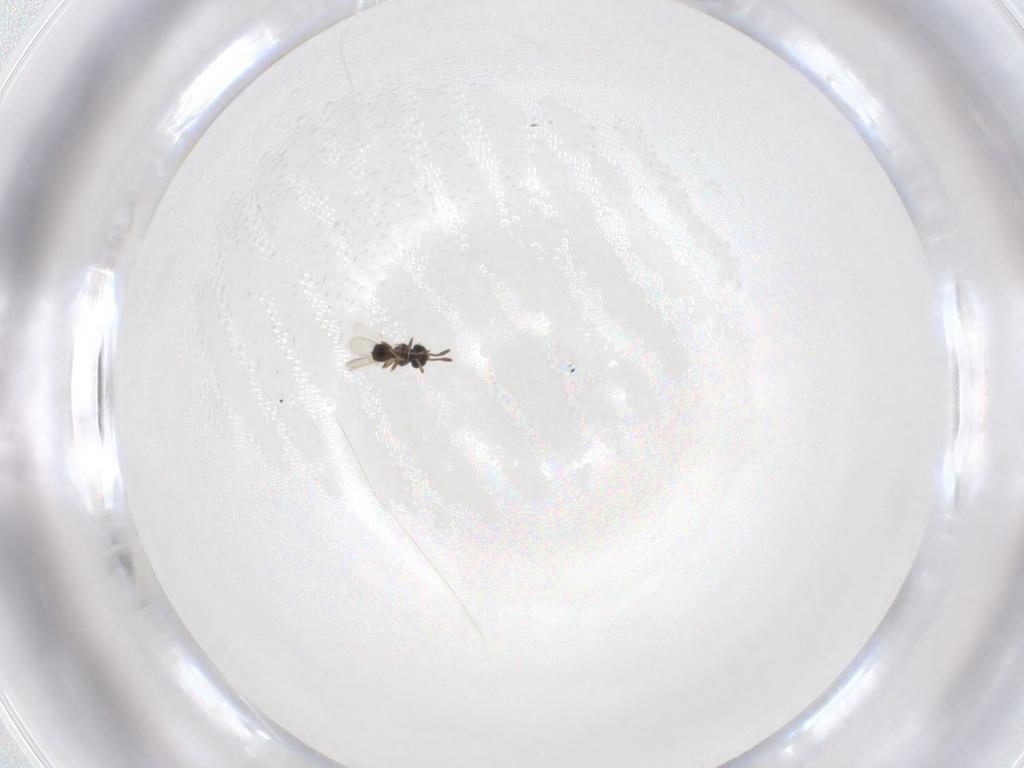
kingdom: Animalia
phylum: Arthropoda
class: Insecta
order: Hymenoptera
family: Scelionidae
